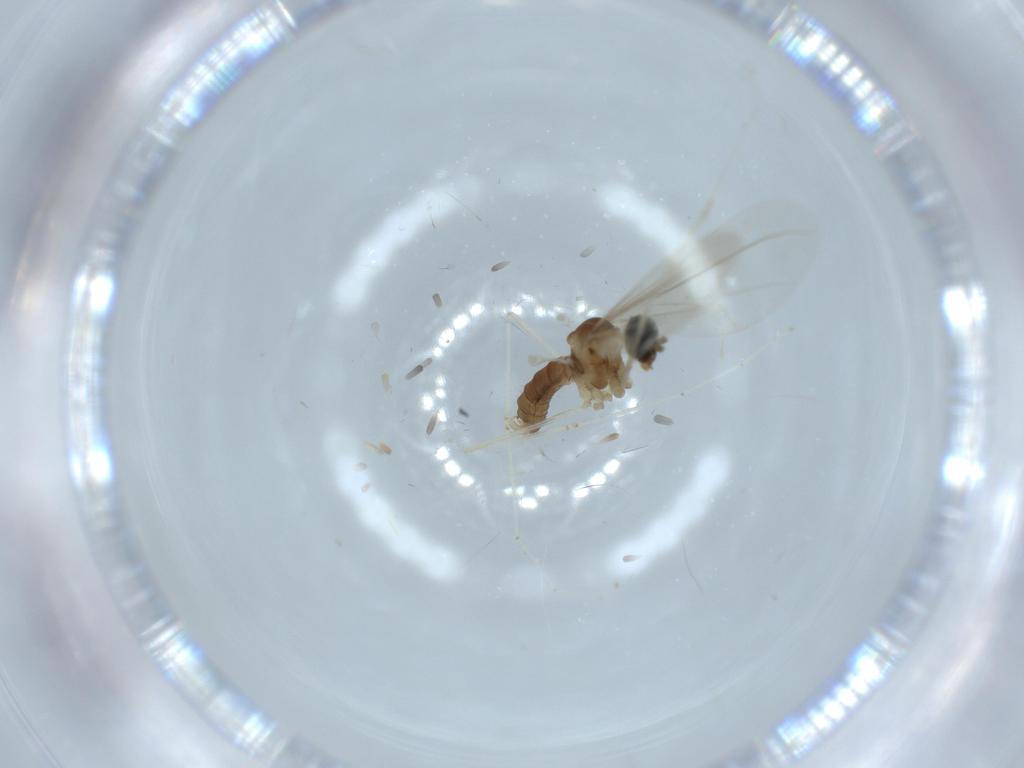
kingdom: Animalia
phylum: Arthropoda
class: Insecta
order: Diptera
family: Cecidomyiidae
